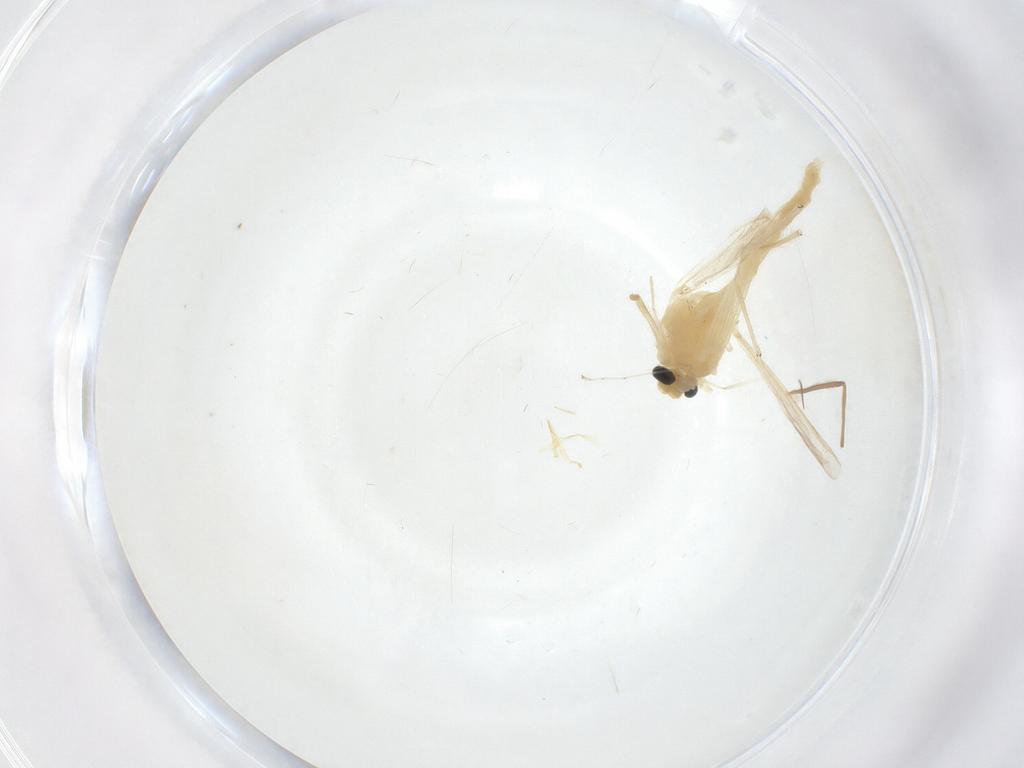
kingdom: Animalia
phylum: Arthropoda
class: Insecta
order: Diptera
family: Chironomidae
